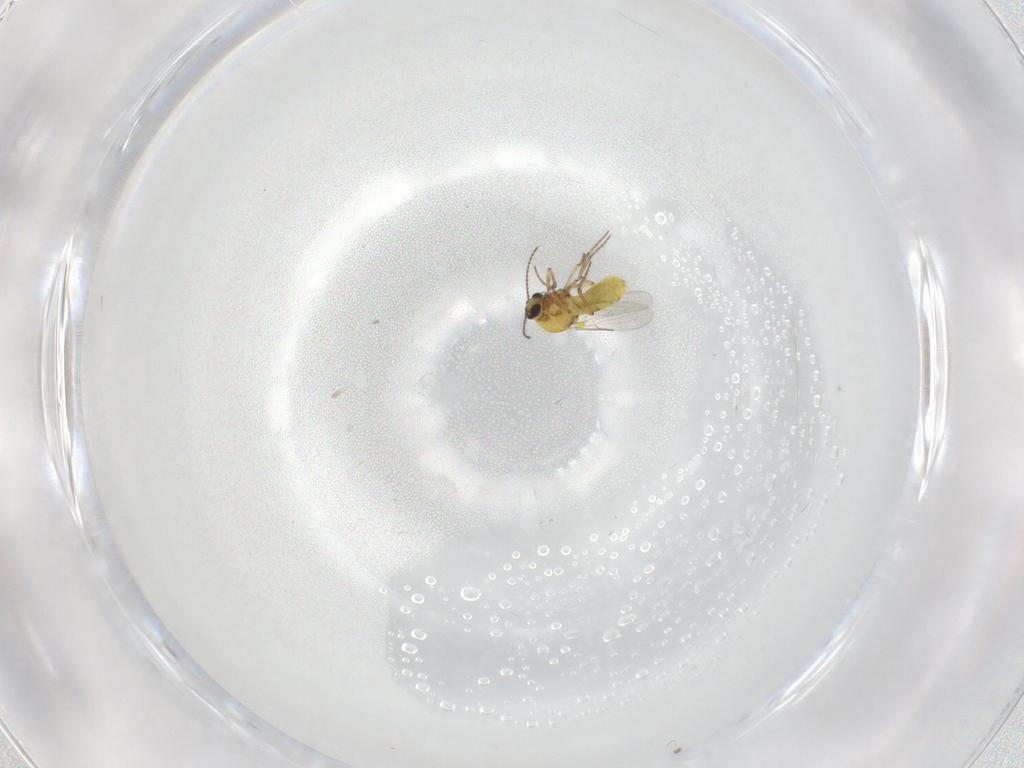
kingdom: Animalia
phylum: Arthropoda
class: Insecta
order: Diptera
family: Ceratopogonidae
